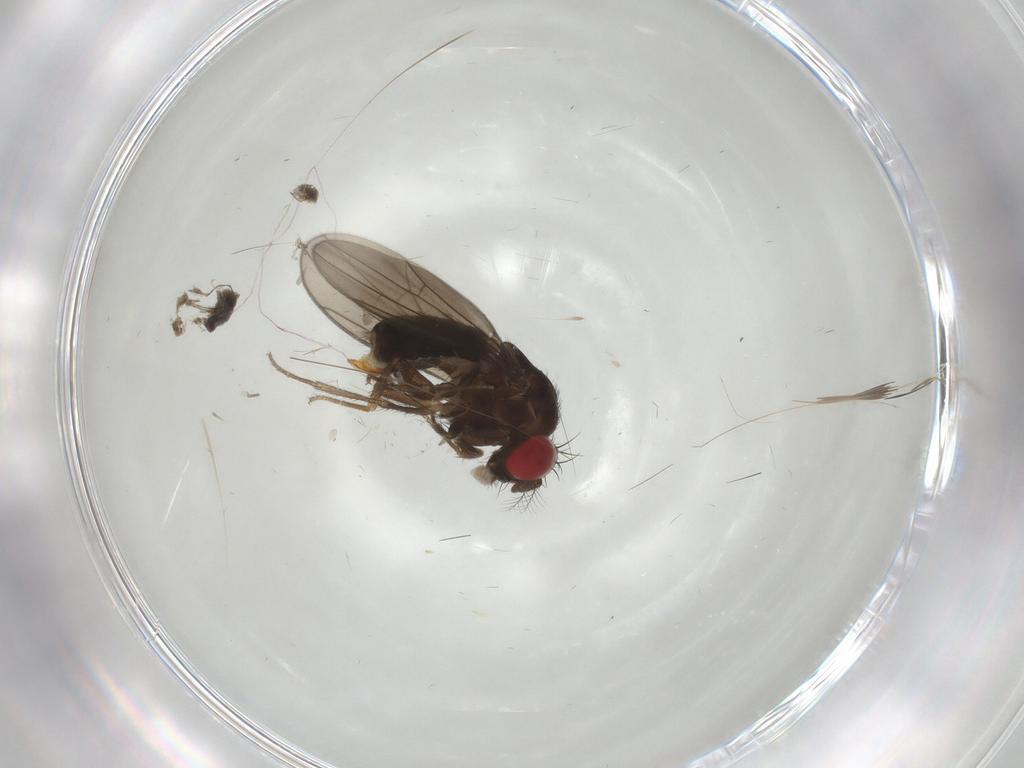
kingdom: Animalia
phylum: Arthropoda
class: Insecta
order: Diptera
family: Drosophilidae
